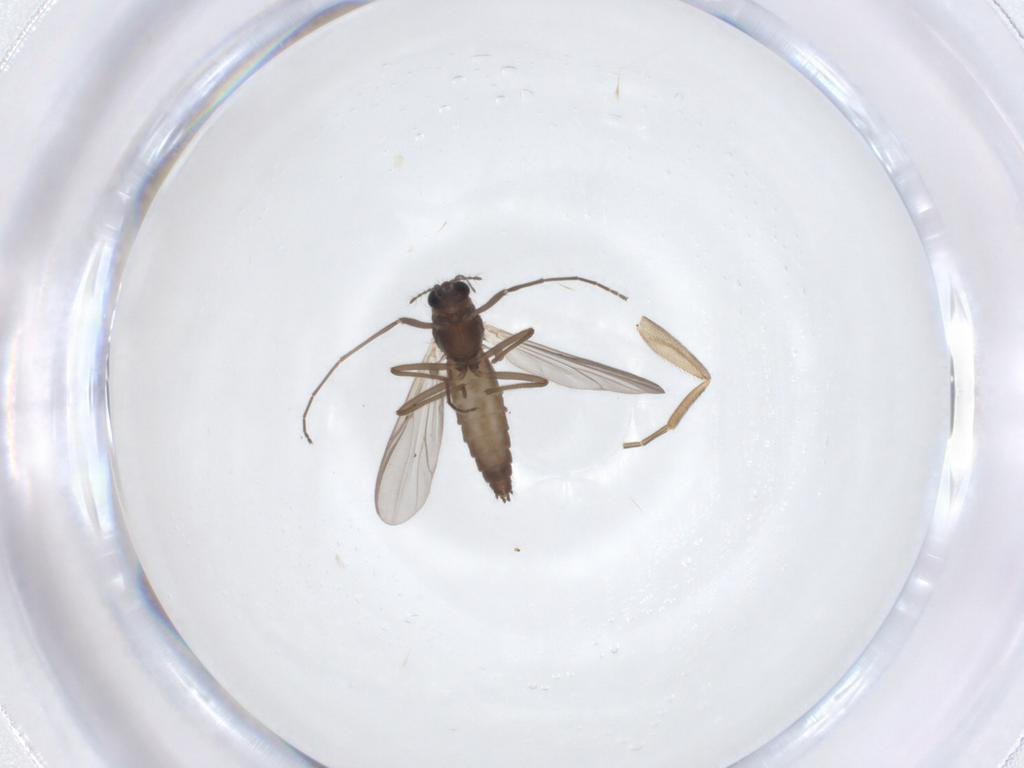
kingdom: Animalia
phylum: Arthropoda
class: Insecta
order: Diptera
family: Chironomidae
